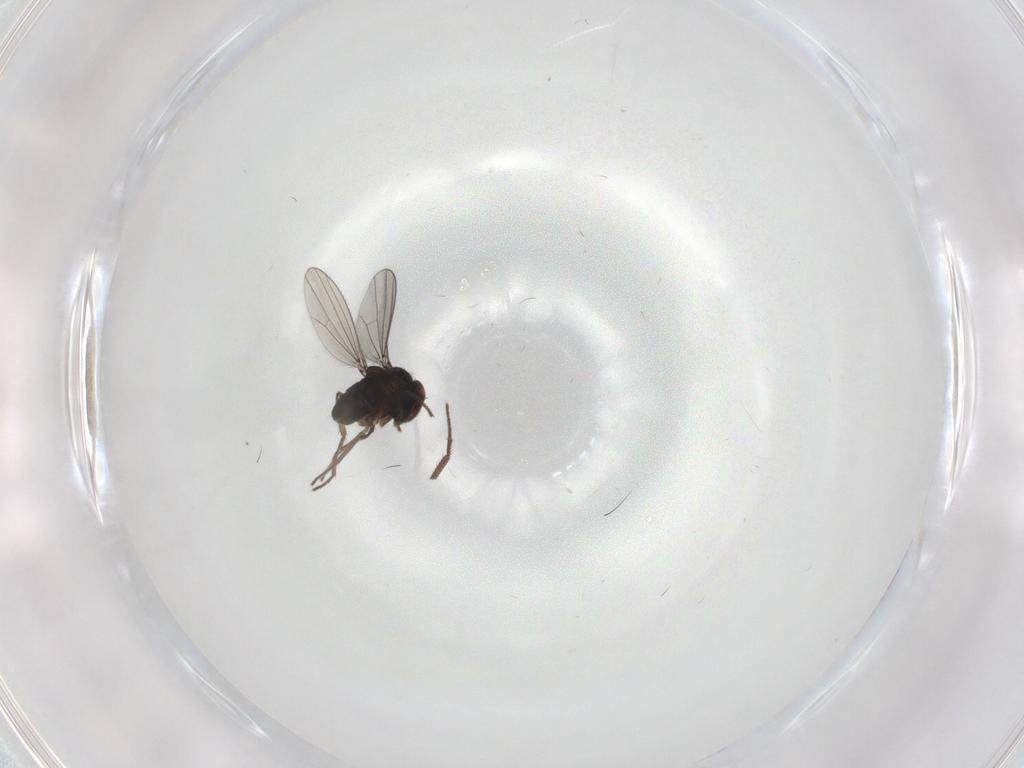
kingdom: Animalia
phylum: Arthropoda
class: Insecta
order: Diptera
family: Dolichopodidae
